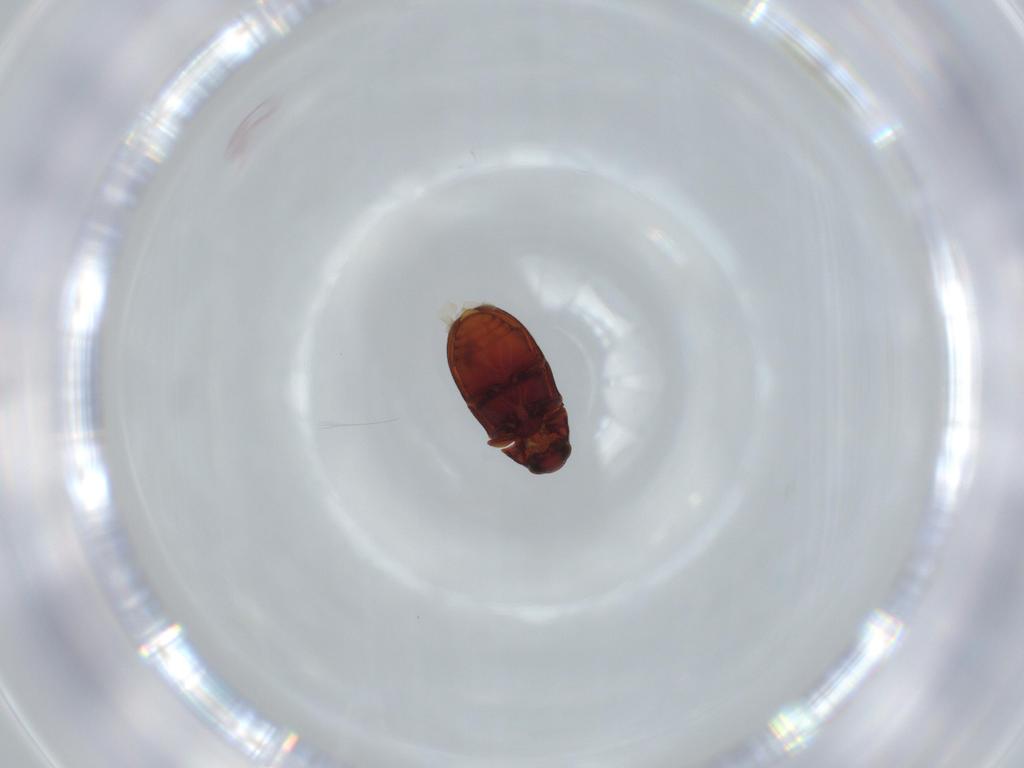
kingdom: Animalia
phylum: Arthropoda
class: Insecta
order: Coleoptera
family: Ptinidae
